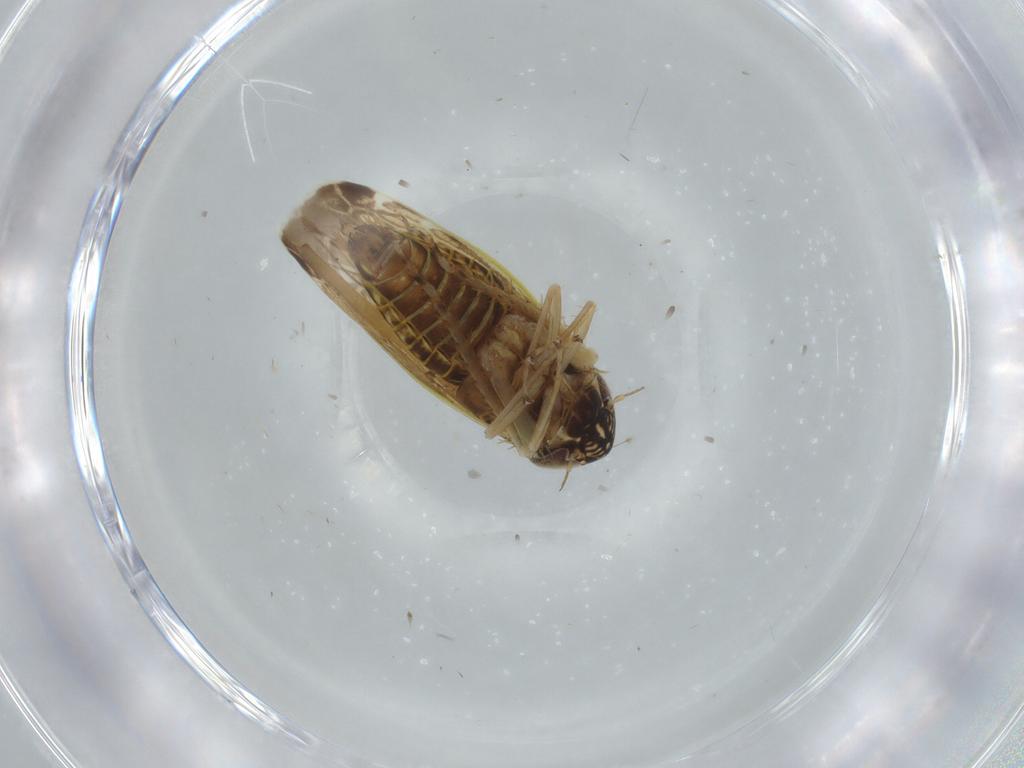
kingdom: Animalia
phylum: Arthropoda
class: Insecta
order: Hemiptera
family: Cicadellidae
